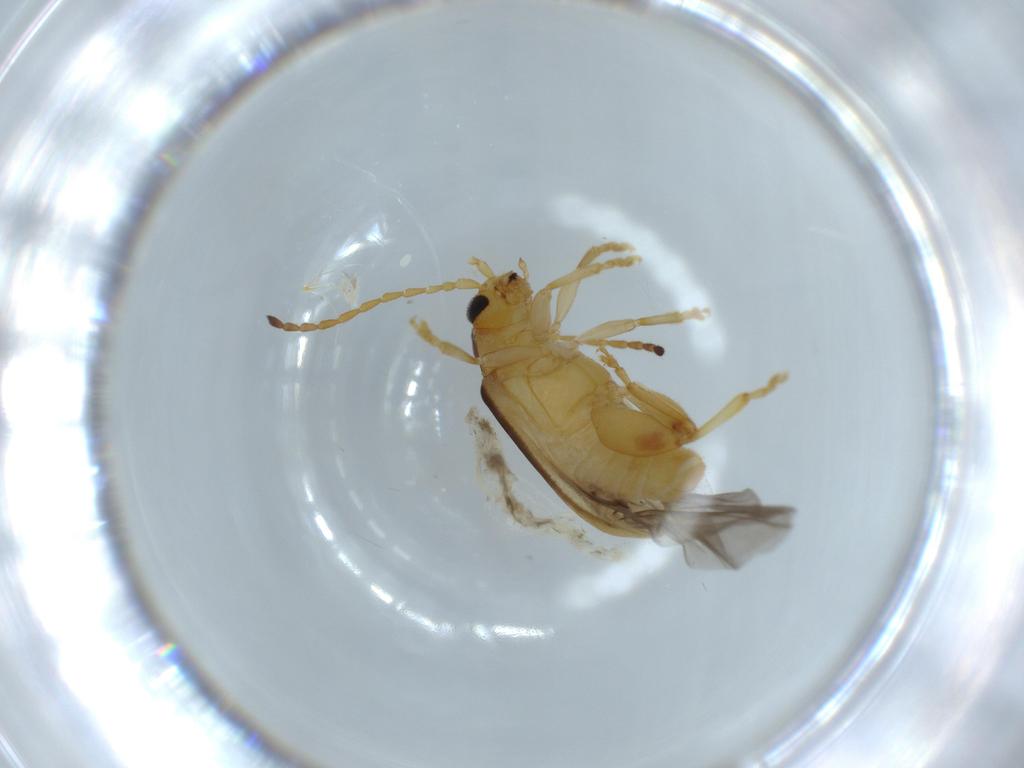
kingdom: Animalia
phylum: Arthropoda
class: Insecta
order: Coleoptera
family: Chrysomelidae
